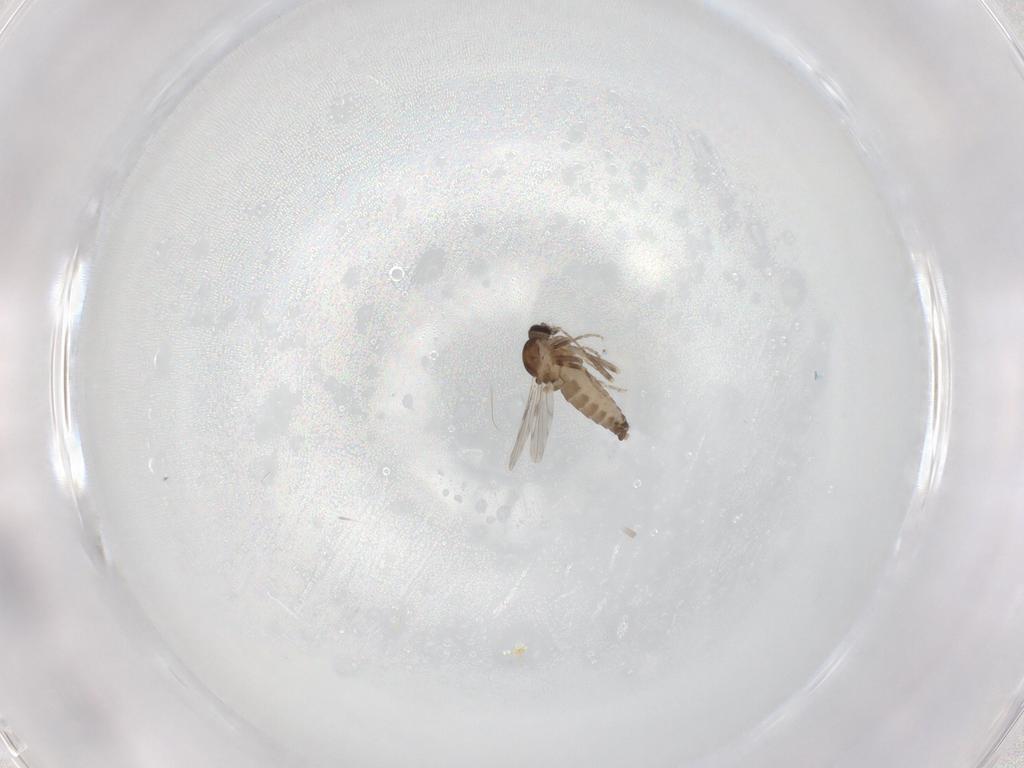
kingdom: Animalia
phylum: Arthropoda
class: Insecta
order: Diptera
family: Ceratopogonidae
